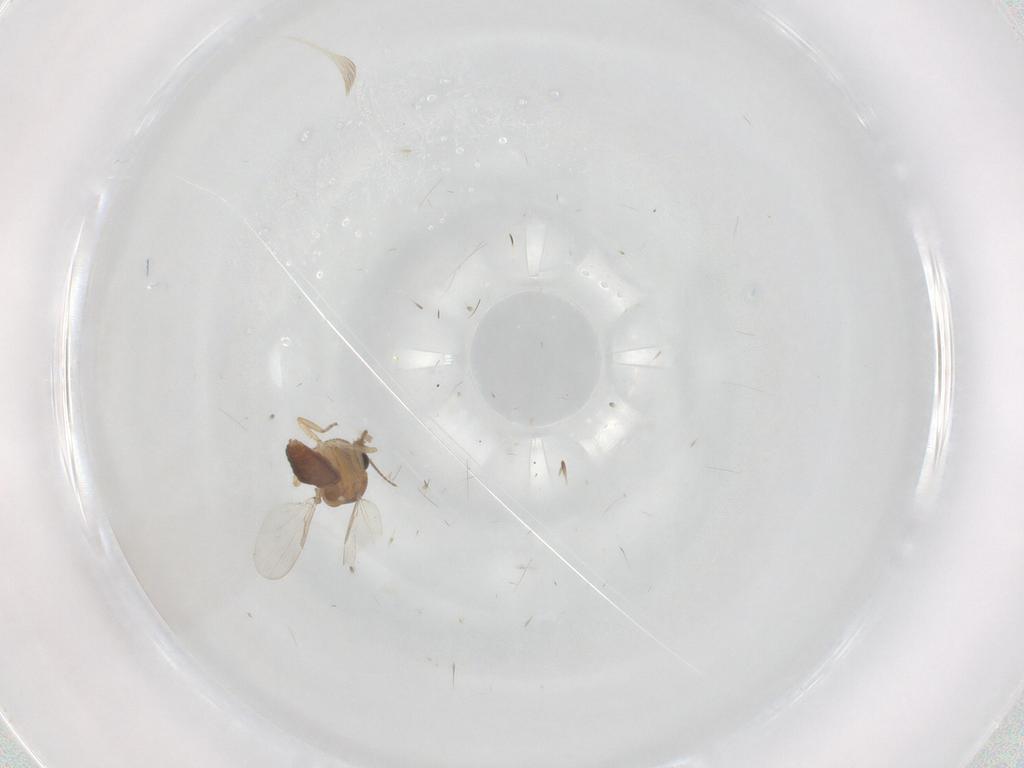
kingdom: Animalia
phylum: Arthropoda
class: Insecta
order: Diptera
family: Ceratopogonidae
